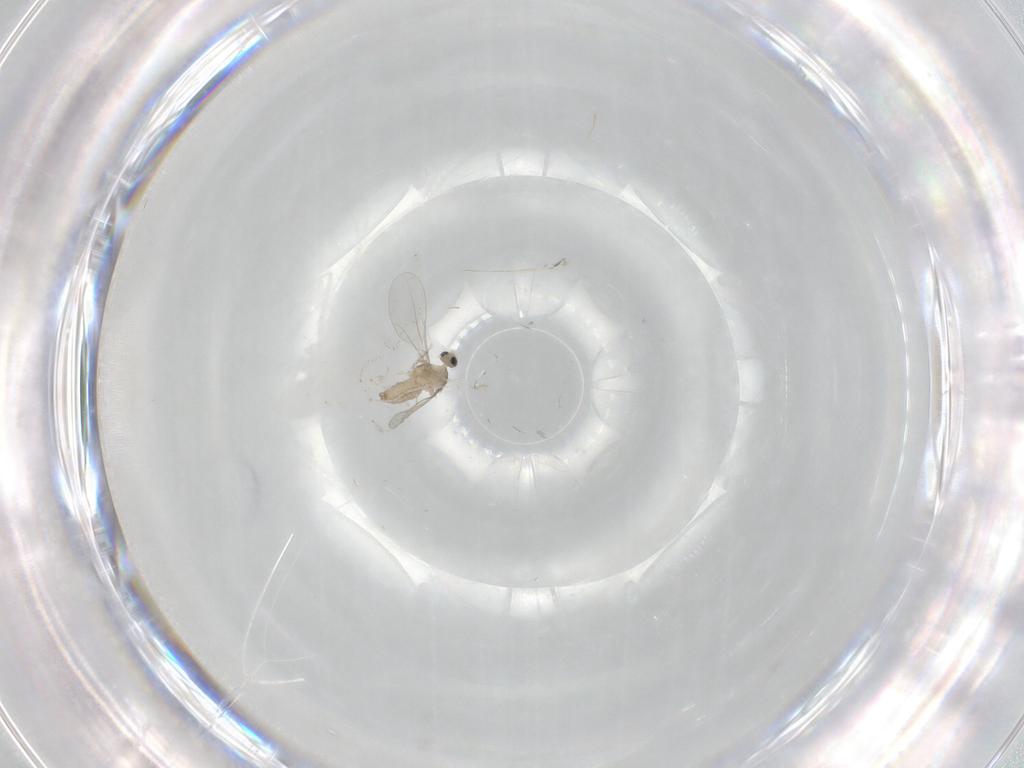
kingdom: Animalia
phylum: Arthropoda
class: Insecta
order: Diptera
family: Cecidomyiidae
